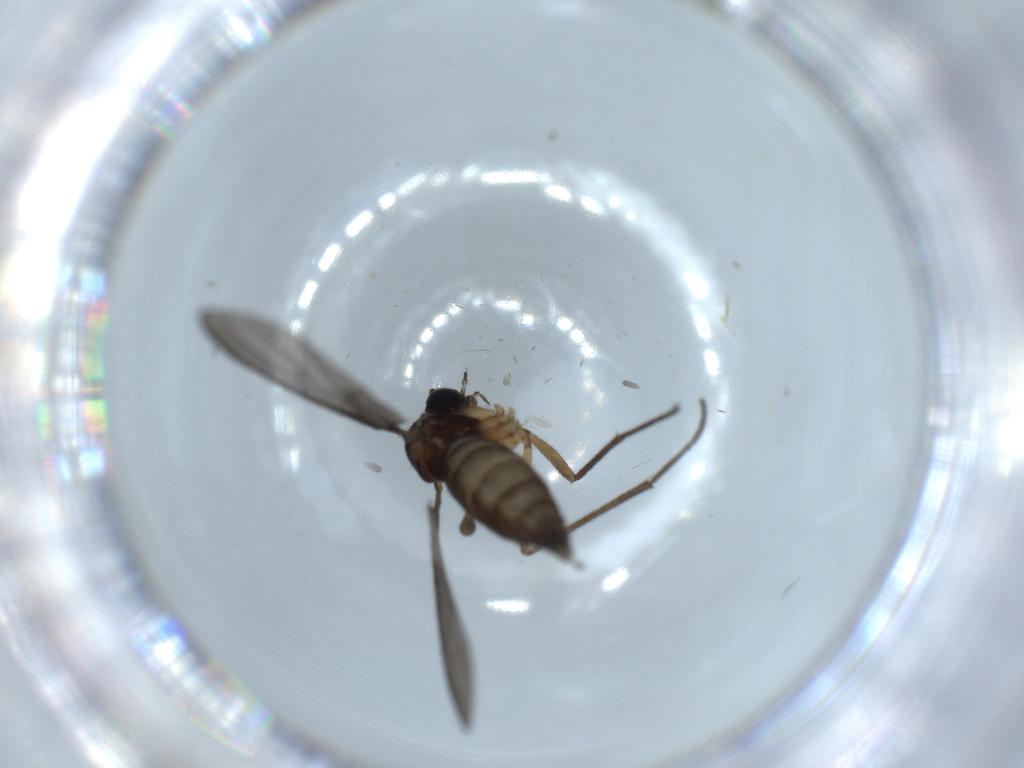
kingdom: Animalia
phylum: Arthropoda
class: Insecta
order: Diptera
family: Sciaridae
